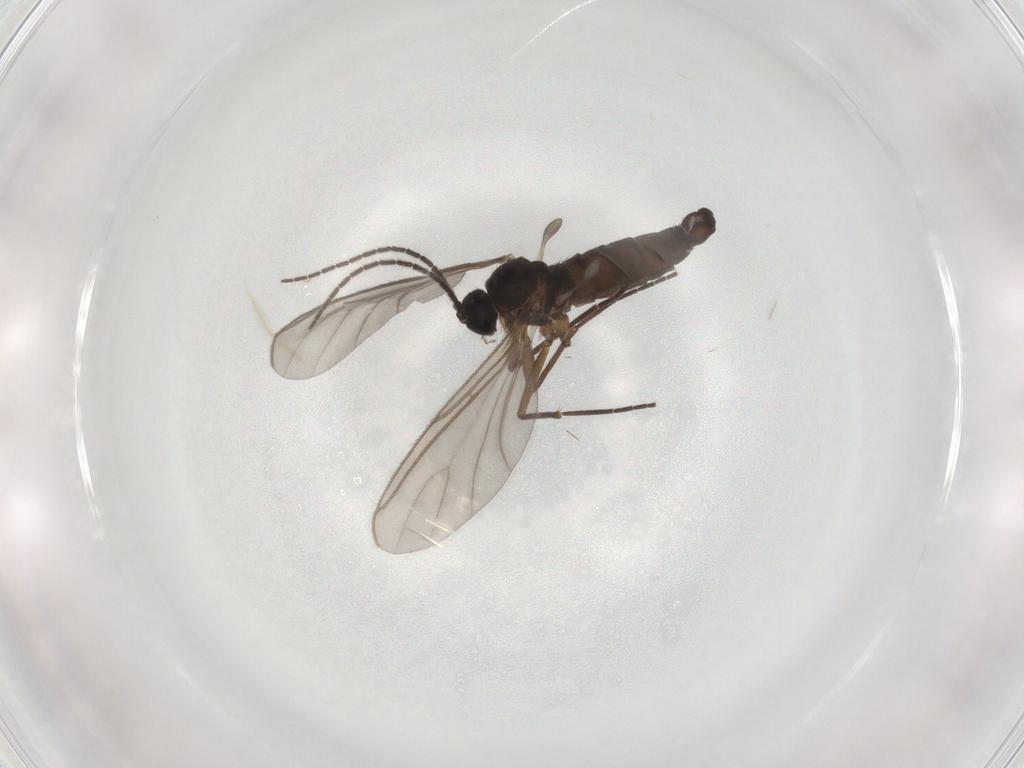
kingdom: Animalia
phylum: Arthropoda
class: Insecta
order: Diptera
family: Sciaridae
